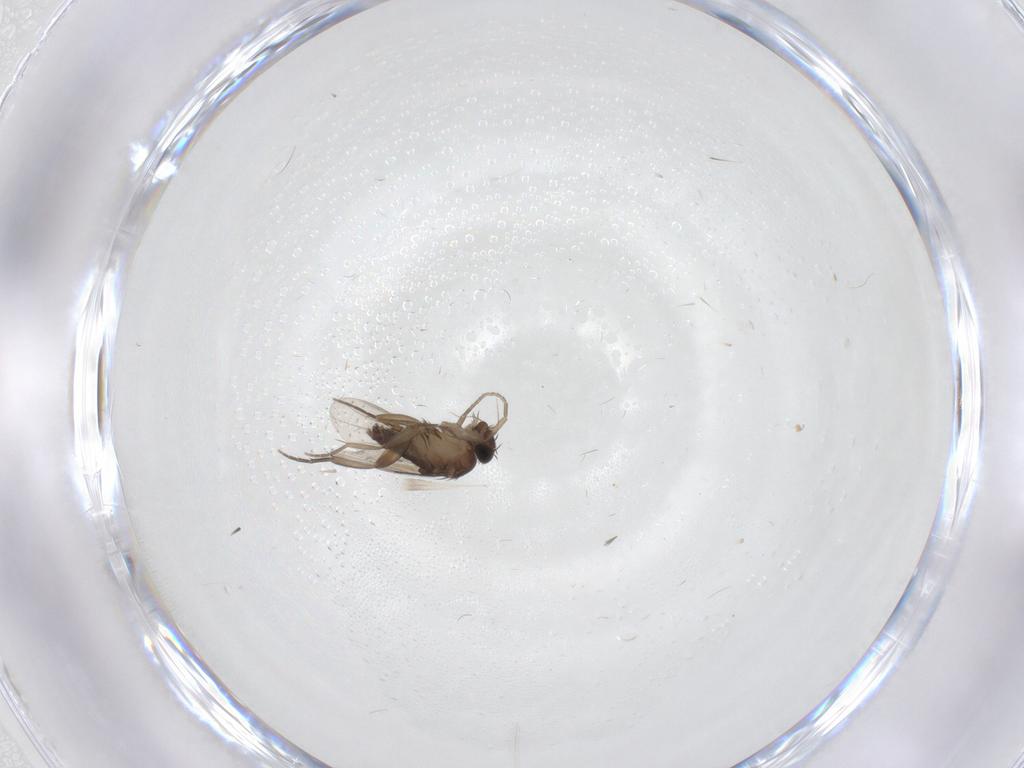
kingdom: Animalia
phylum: Arthropoda
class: Insecta
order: Diptera
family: Phoridae
